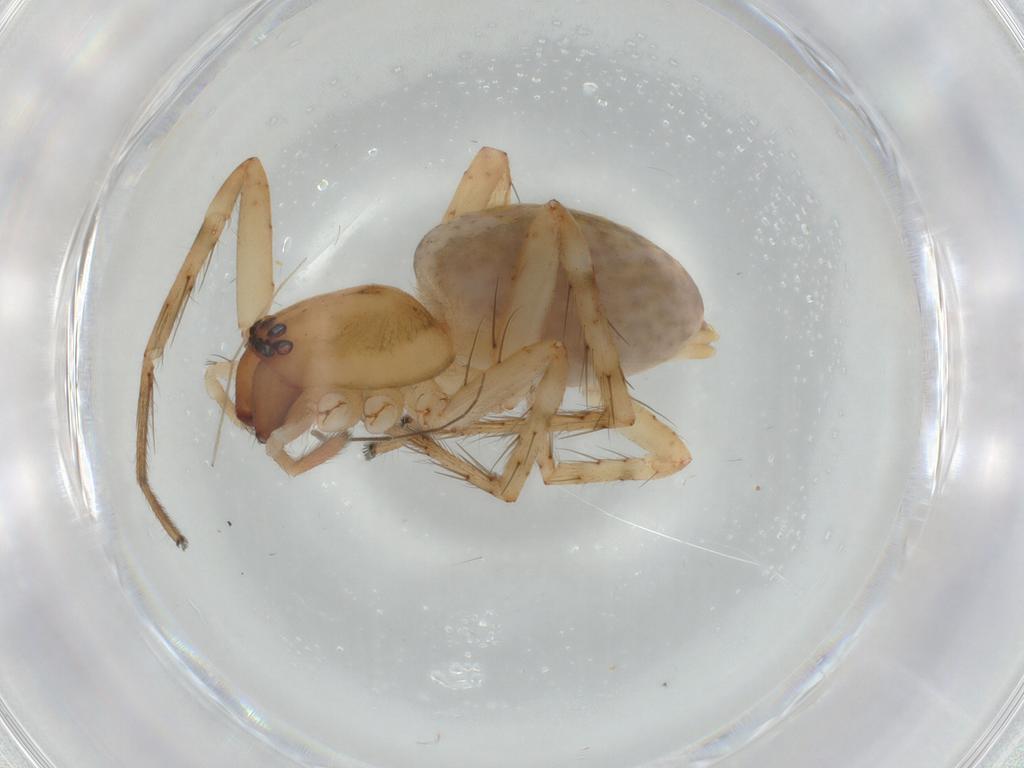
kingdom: Animalia
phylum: Arthropoda
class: Arachnida
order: Araneae
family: Anyphaenidae
